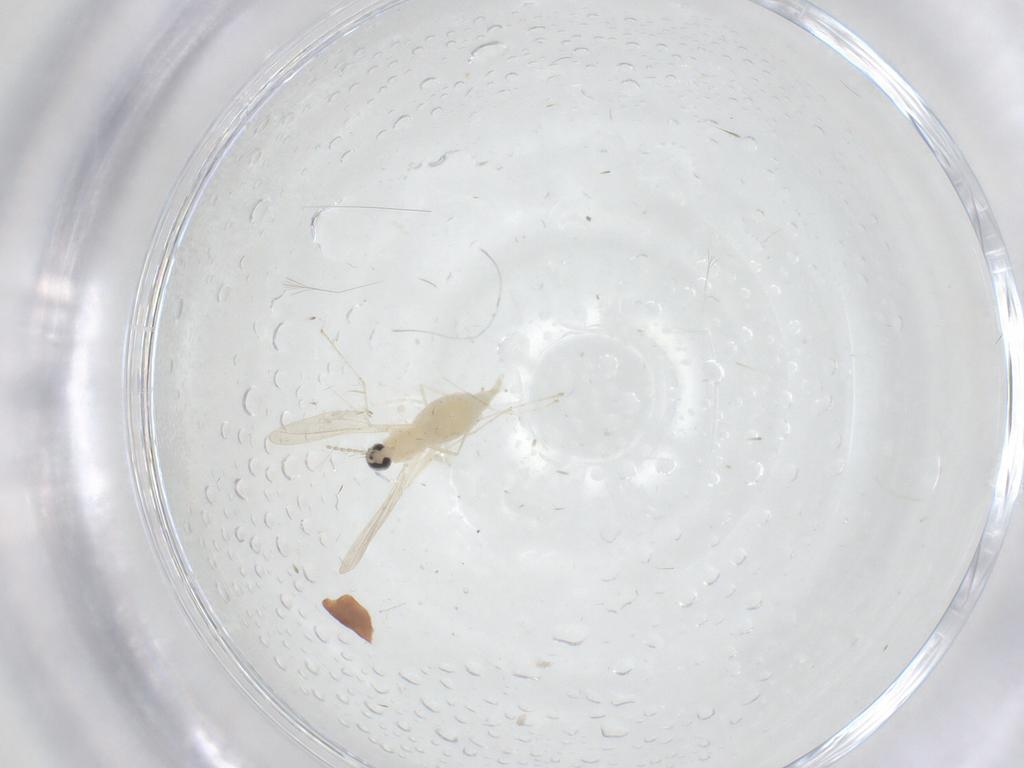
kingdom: Animalia
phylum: Arthropoda
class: Insecta
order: Diptera
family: Cecidomyiidae
